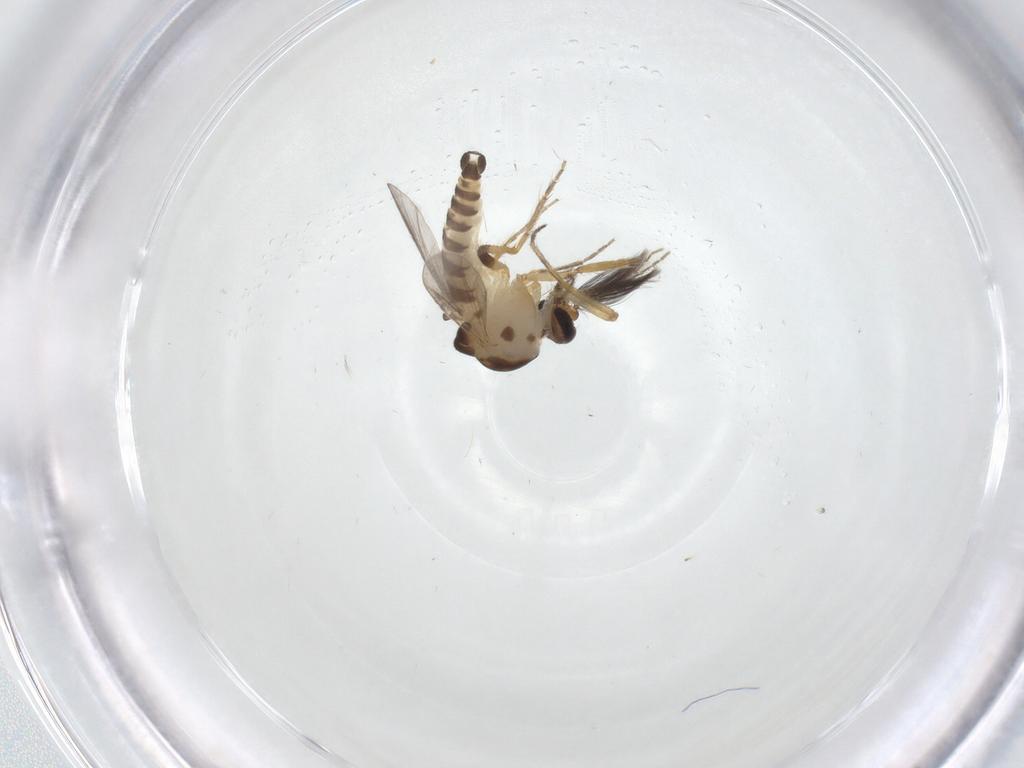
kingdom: Animalia
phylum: Arthropoda
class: Insecta
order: Diptera
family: Ceratopogonidae
